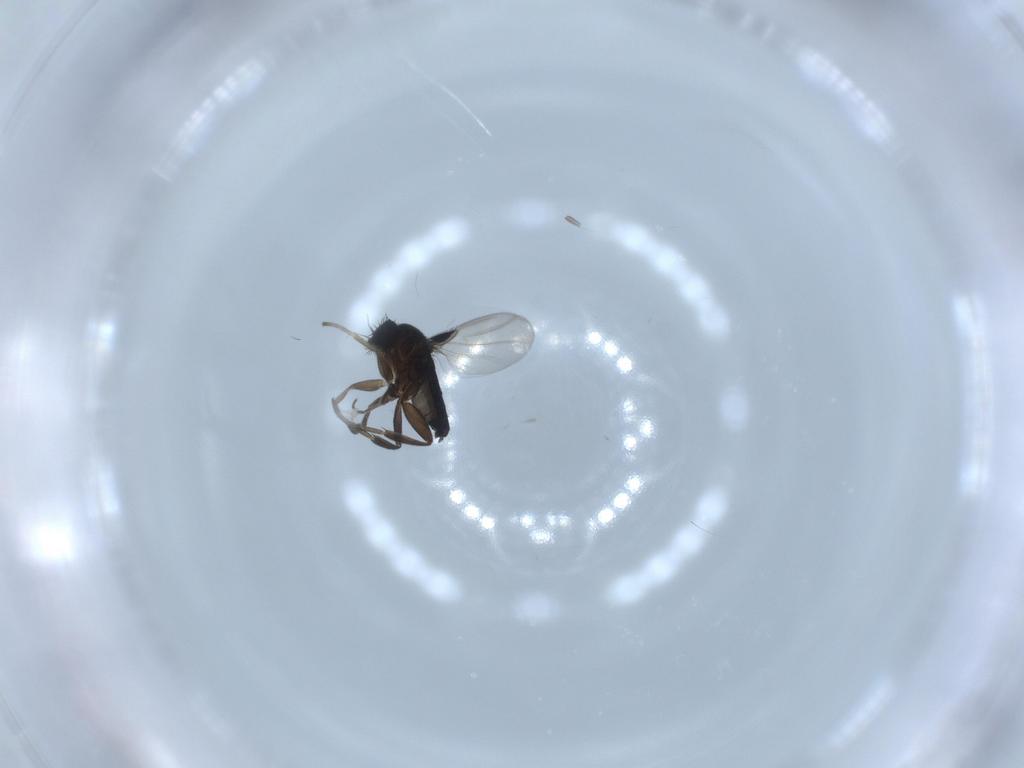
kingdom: Animalia
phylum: Arthropoda
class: Insecta
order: Diptera
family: Phoridae
